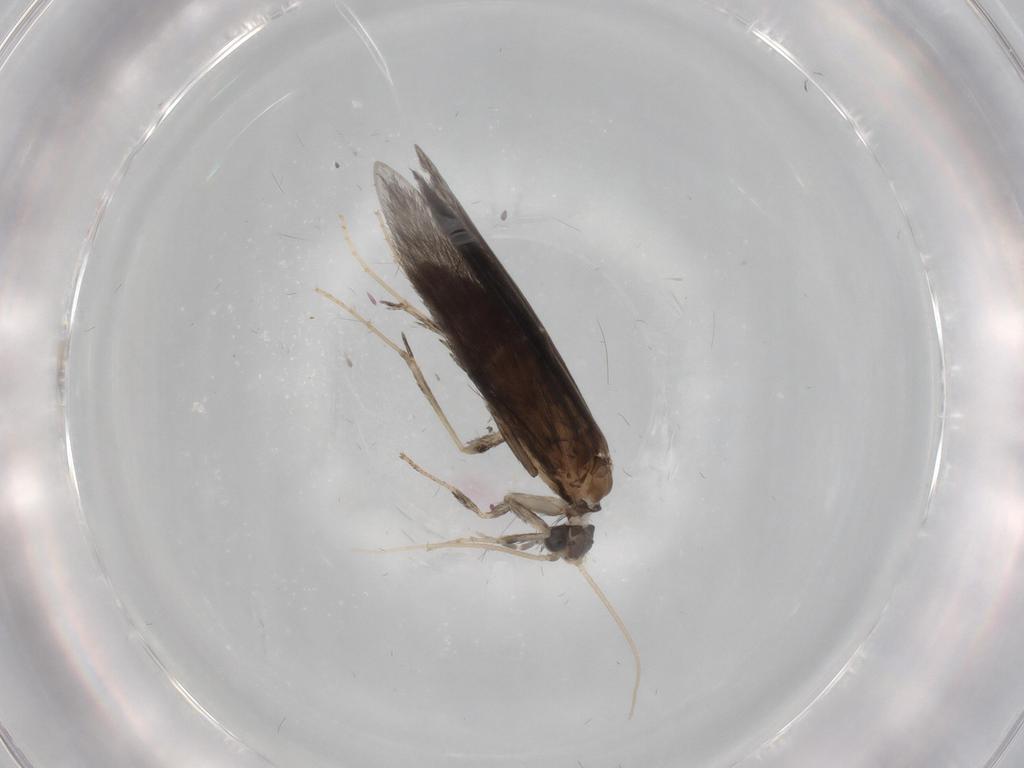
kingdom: Animalia
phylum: Arthropoda
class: Insecta
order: Trichoptera
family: Hydroptilidae
